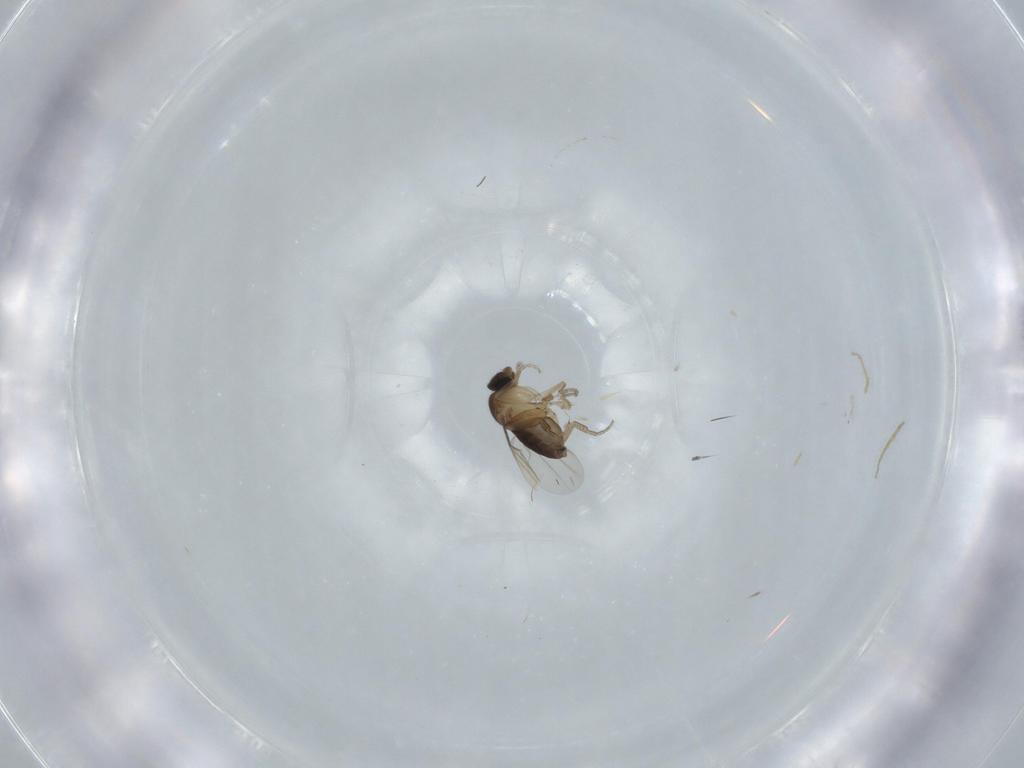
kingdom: Animalia
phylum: Arthropoda
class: Insecta
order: Diptera
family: Phoridae
